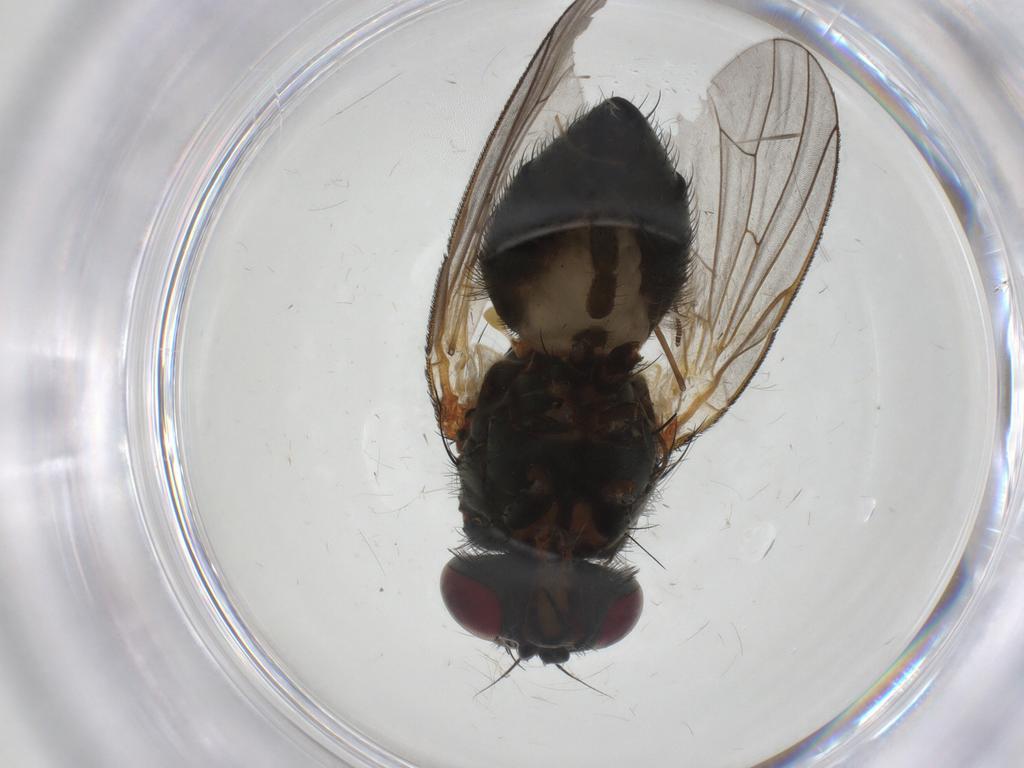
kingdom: Animalia
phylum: Arthropoda
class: Insecta
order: Diptera
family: Fannia
